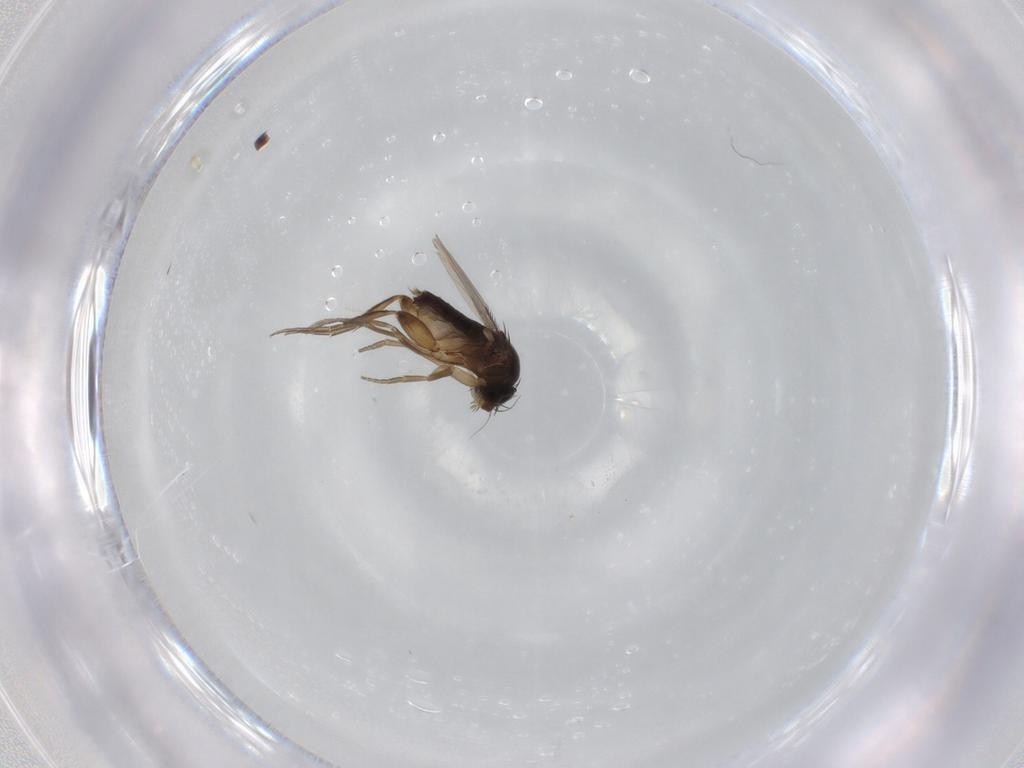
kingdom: Animalia
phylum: Arthropoda
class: Insecta
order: Diptera
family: Phoridae
